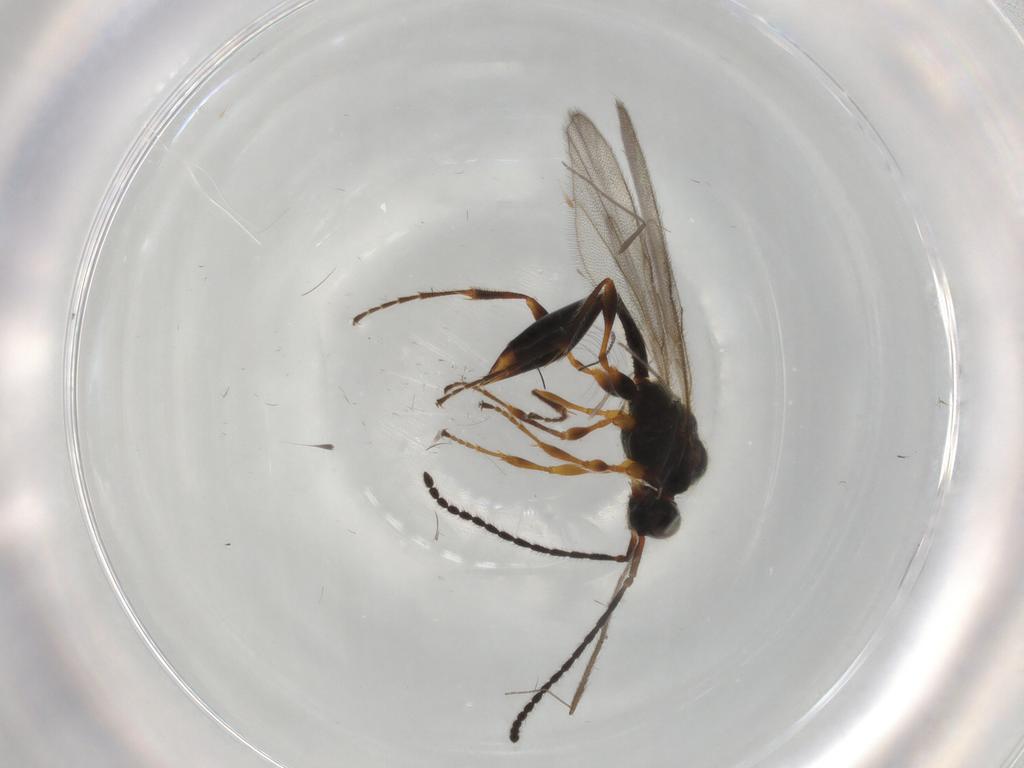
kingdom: Animalia
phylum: Arthropoda
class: Insecta
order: Hymenoptera
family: Diapriidae
